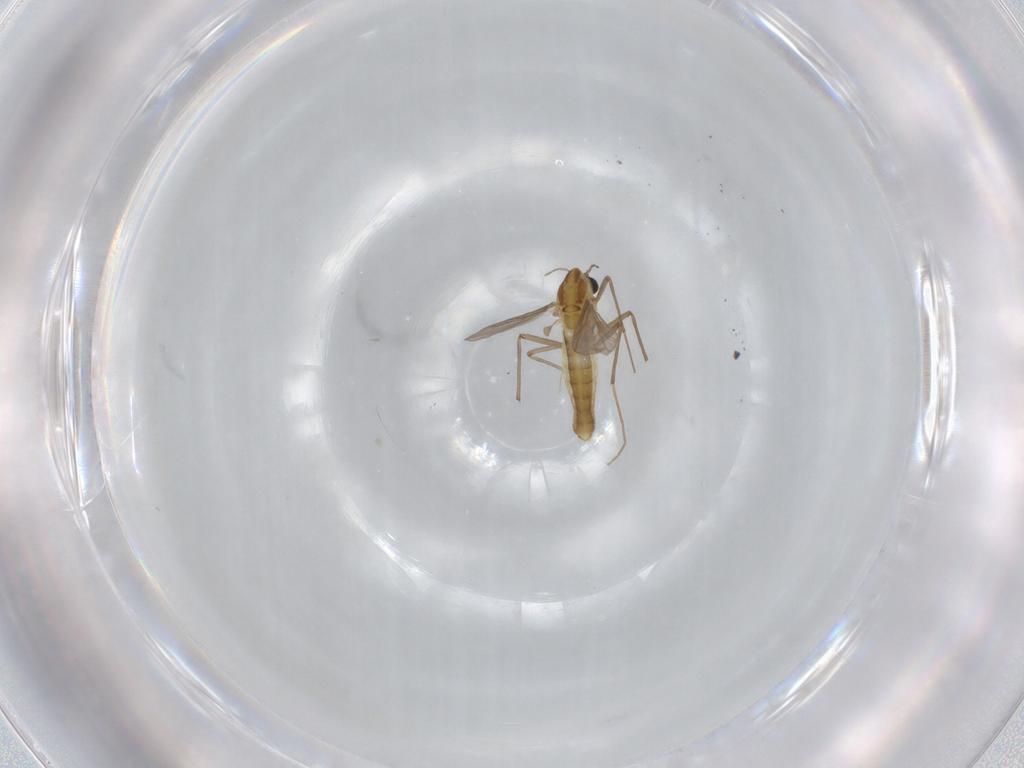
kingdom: Animalia
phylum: Arthropoda
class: Insecta
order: Diptera
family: Chironomidae
